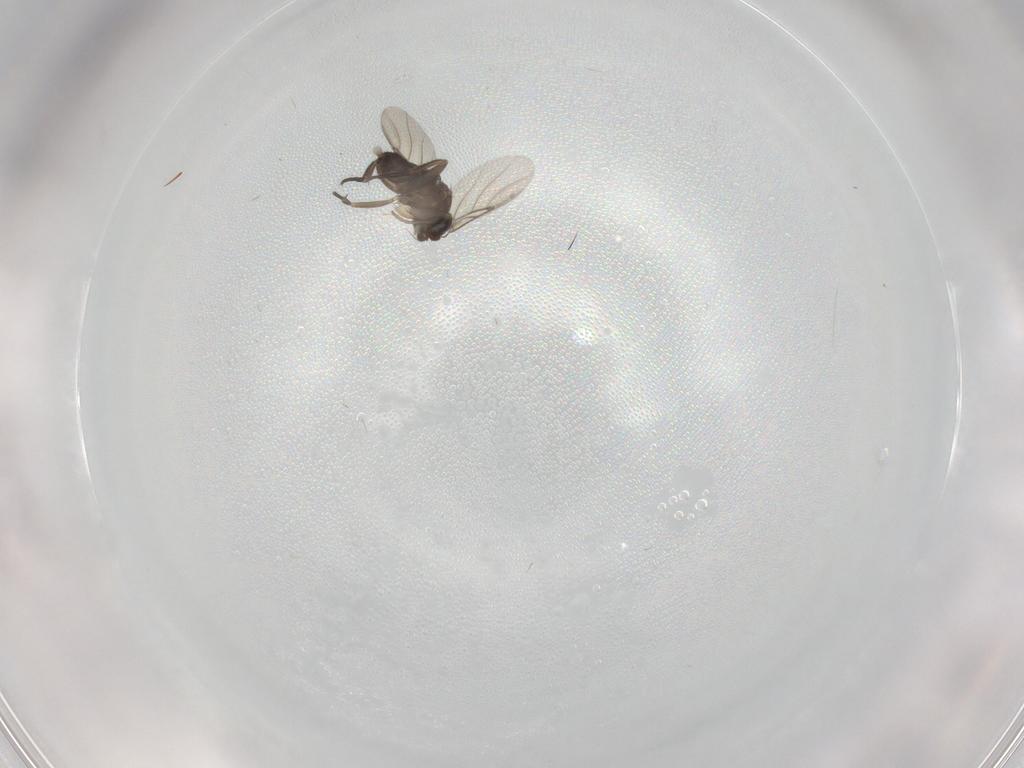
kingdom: Animalia
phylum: Arthropoda
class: Insecta
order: Diptera
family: Phoridae
